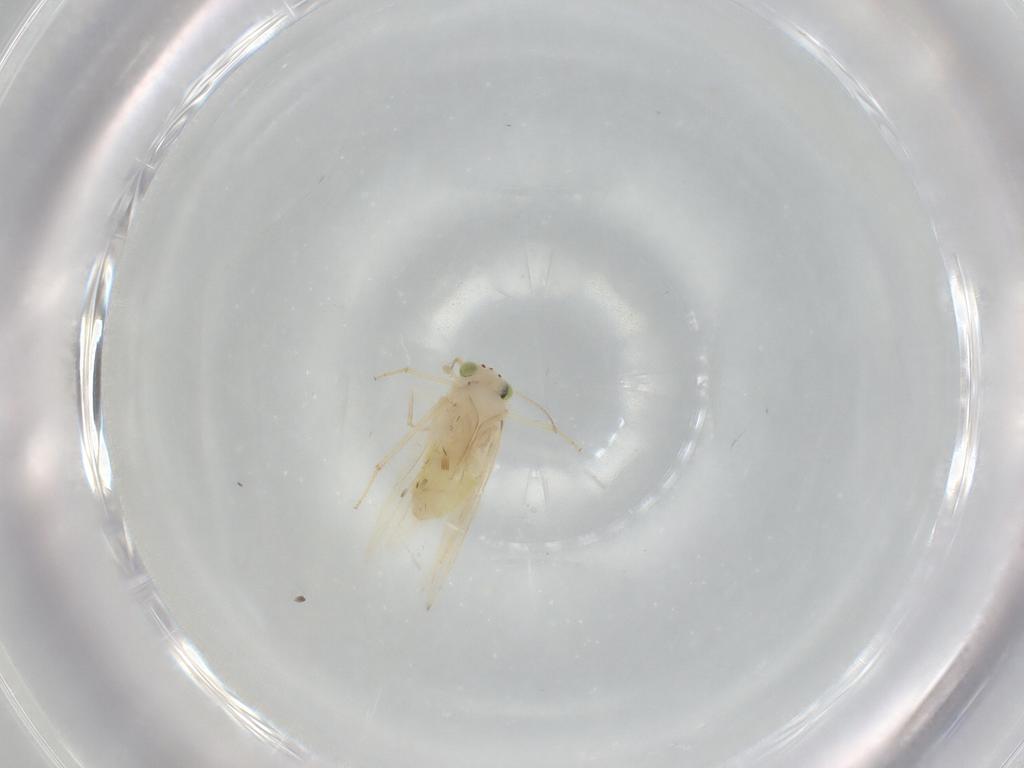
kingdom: Animalia
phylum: Arthropoda
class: Insecta
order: Psocodea
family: Lepidopsocidae
